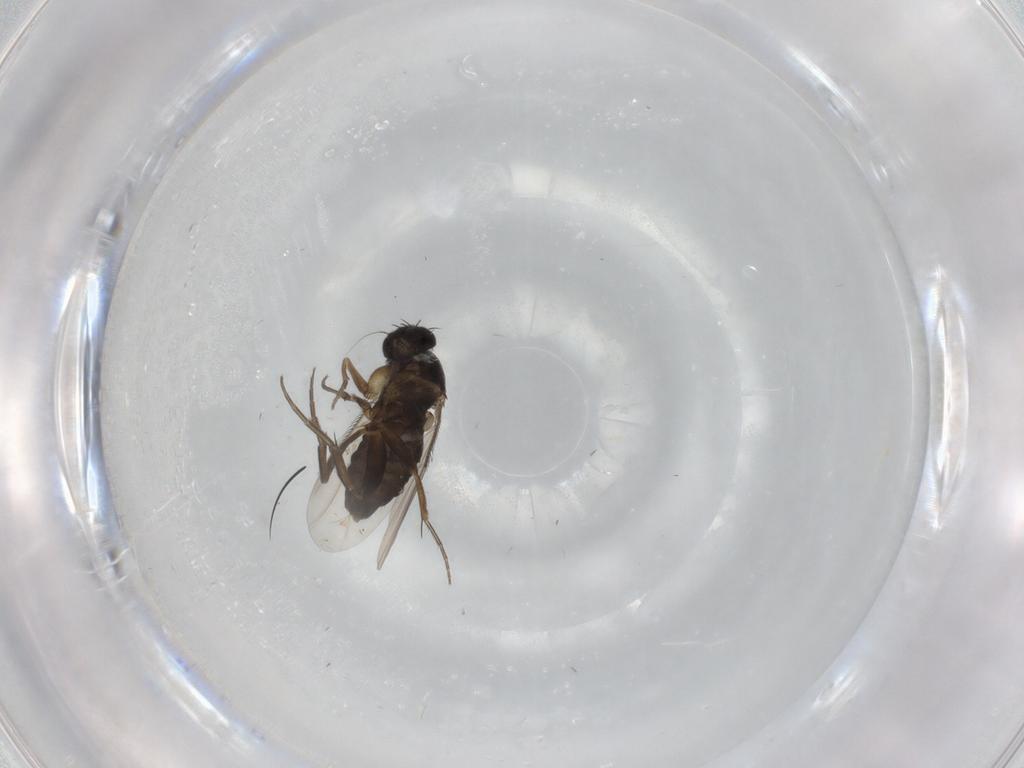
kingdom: Animalia
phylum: Arthropoda
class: Insecta
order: Diptera
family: Phoridae
